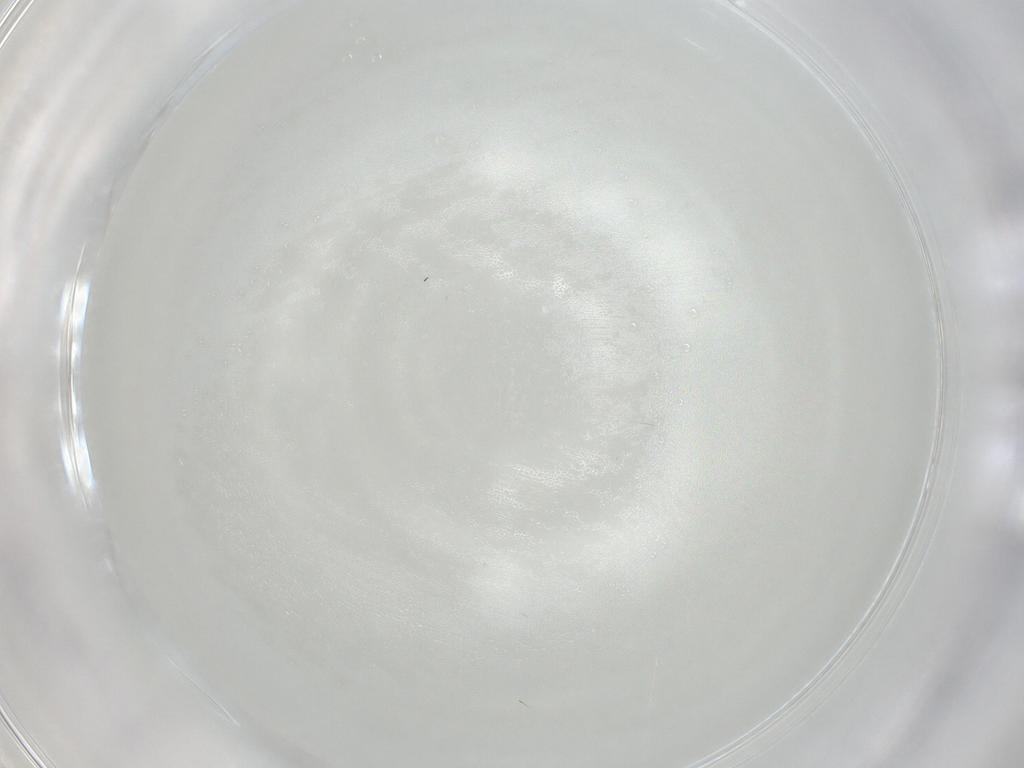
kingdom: Animalia
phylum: Arthropoda
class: Insecta
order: Diptera
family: Chironomidae
